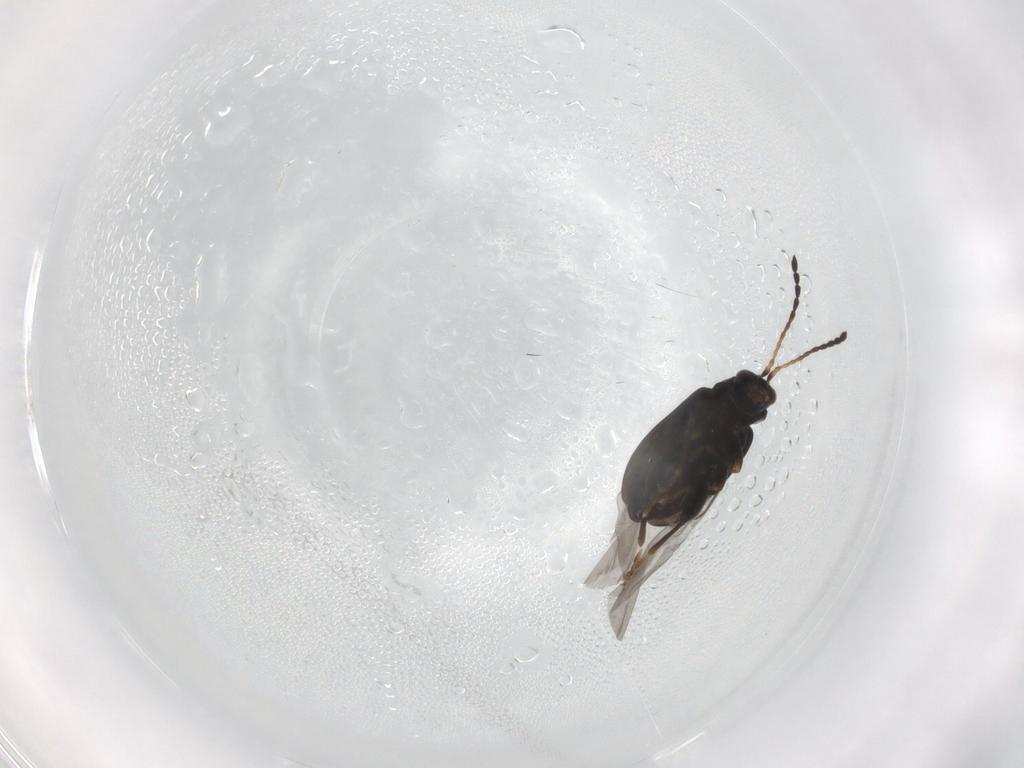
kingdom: Animalia
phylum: Arthropoda
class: Insecta
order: Coleoptera
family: Chrysomelidae
